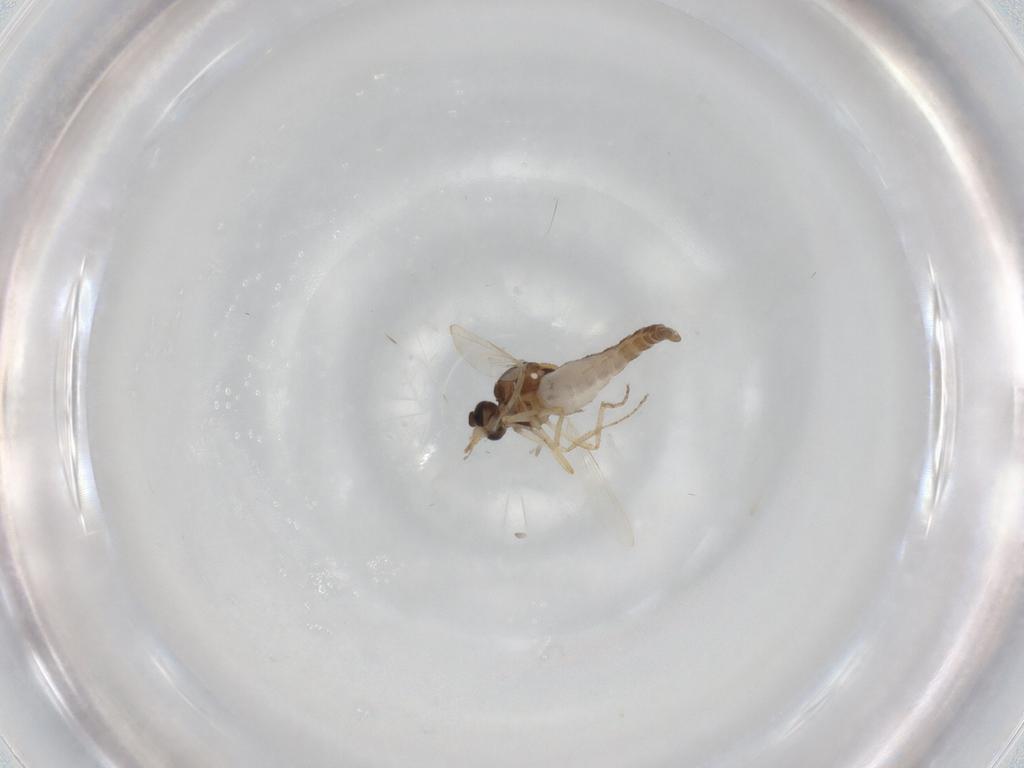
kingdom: Animalia
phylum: Arthropoda
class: Insecta
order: Diptera
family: Ceratopogonidae
